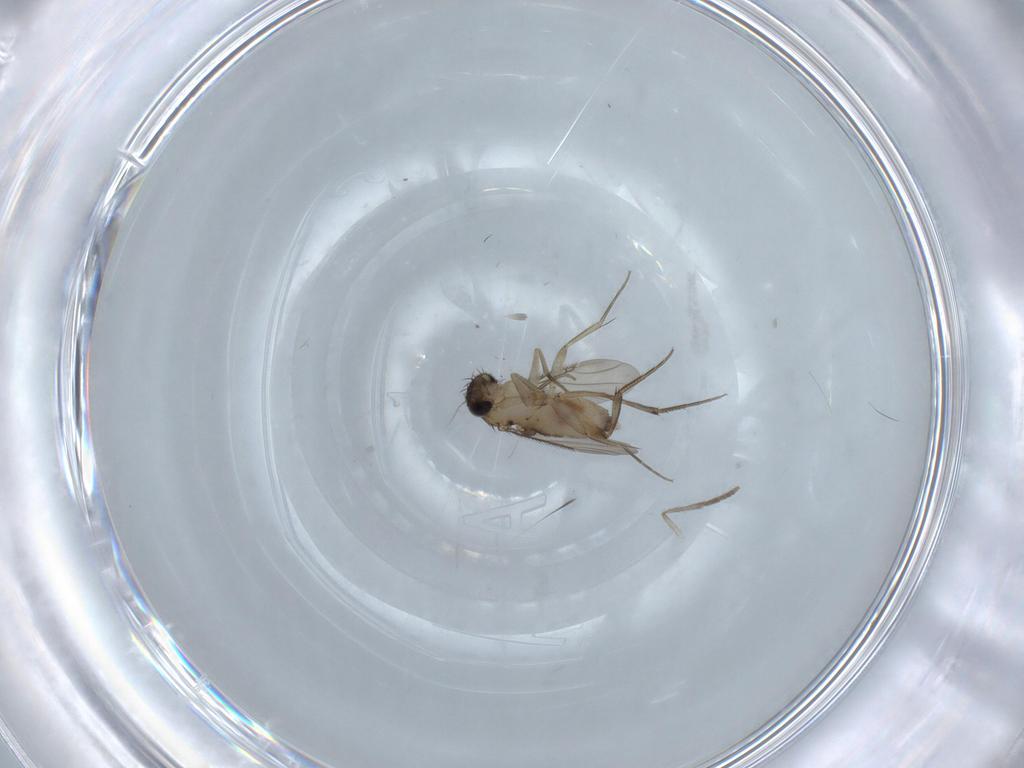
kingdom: Animalia
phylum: Arthropoda
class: Insecta
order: Diptera
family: Phoridae
